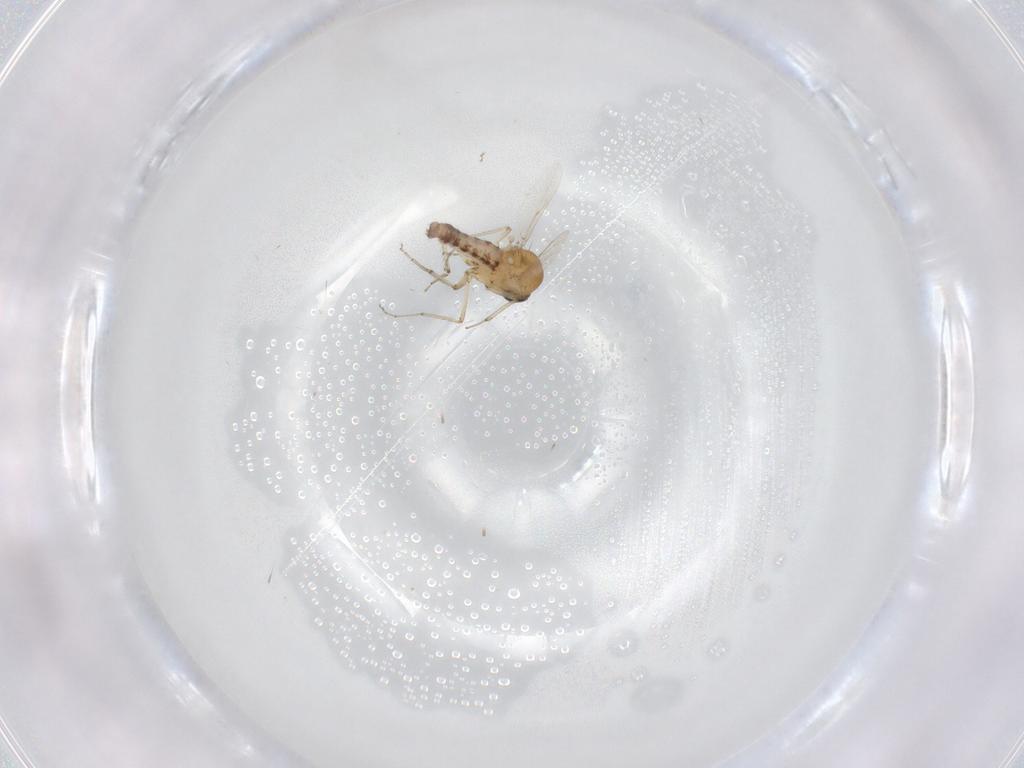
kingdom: Animalia
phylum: Arthropoda
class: Insecta
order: Diptera
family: Ceratopogonidae
